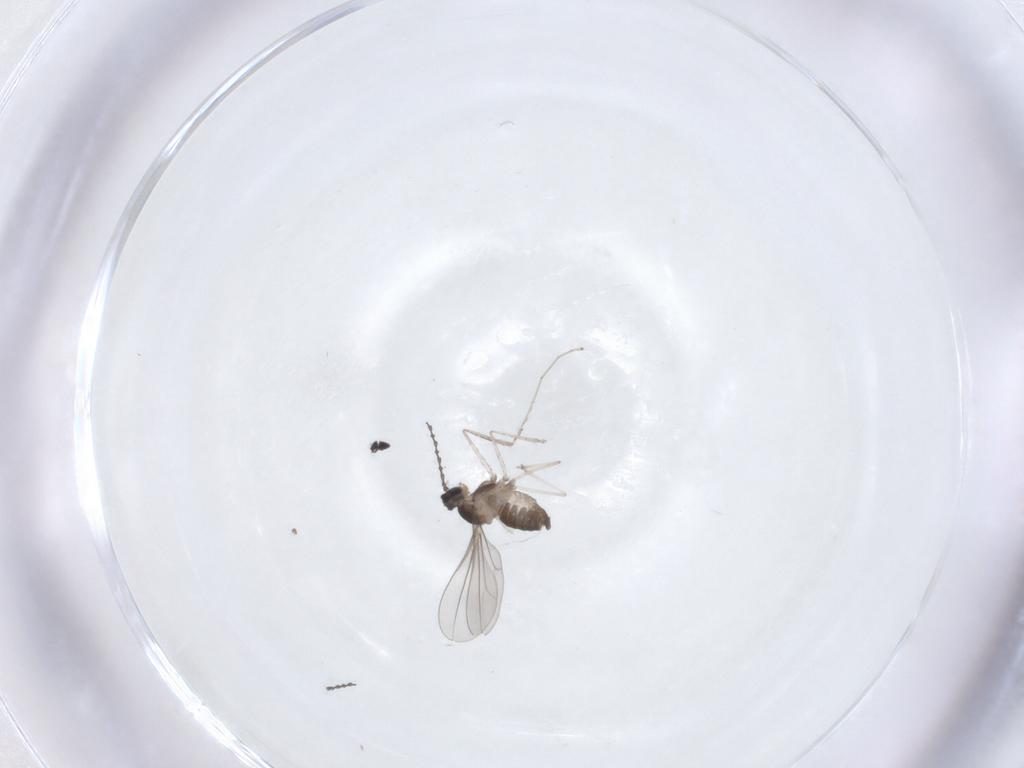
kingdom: Animalia
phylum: Arthropoda
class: Insecta
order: Diptera
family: Cecidomyiidae
